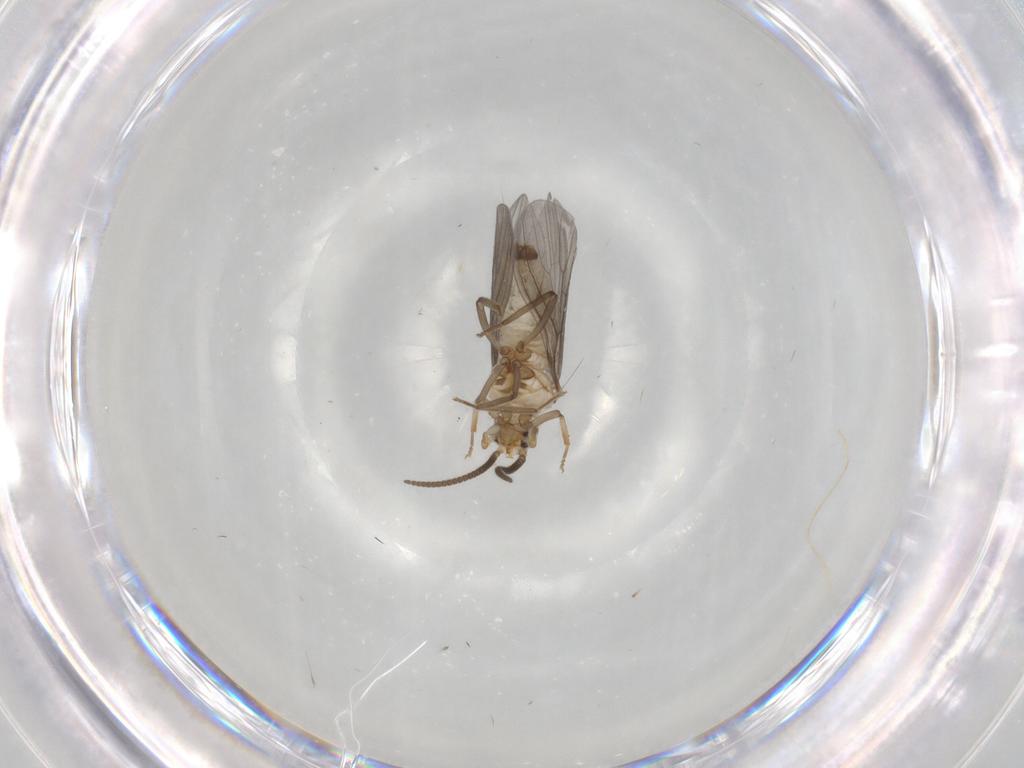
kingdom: Animalia
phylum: Arthropoda
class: Insecta
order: Neuroptera
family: Coniopterygidae
